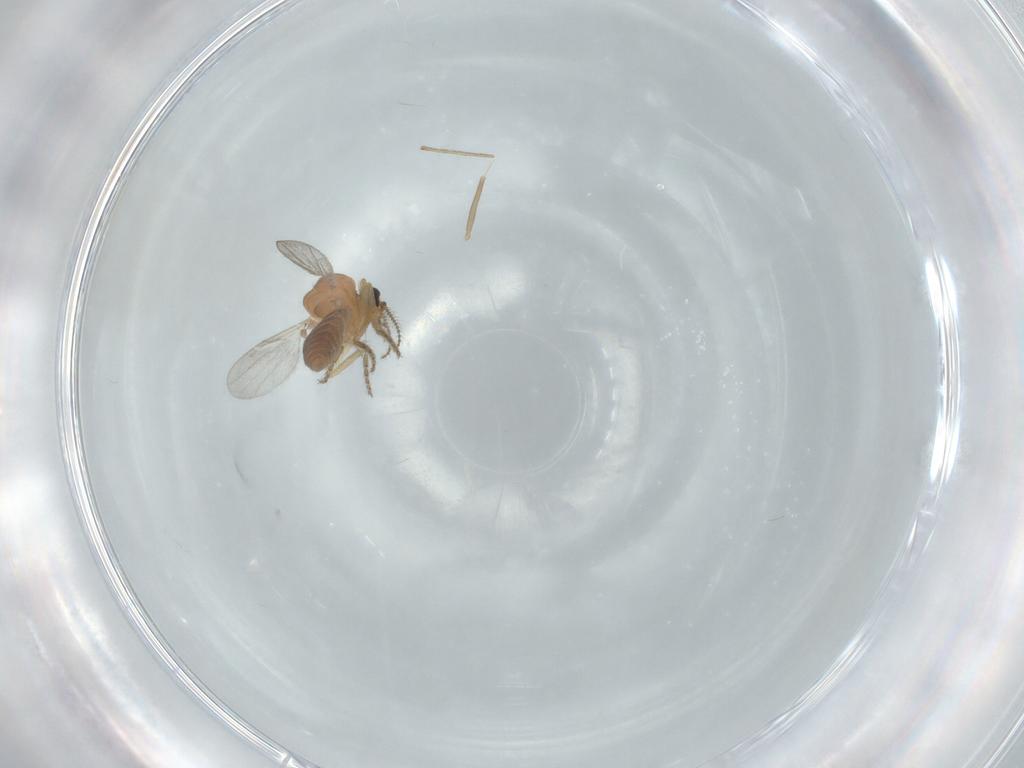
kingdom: Animalia
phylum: Arthropoda
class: Insecta
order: Diptera
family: Ceratopogonidae
